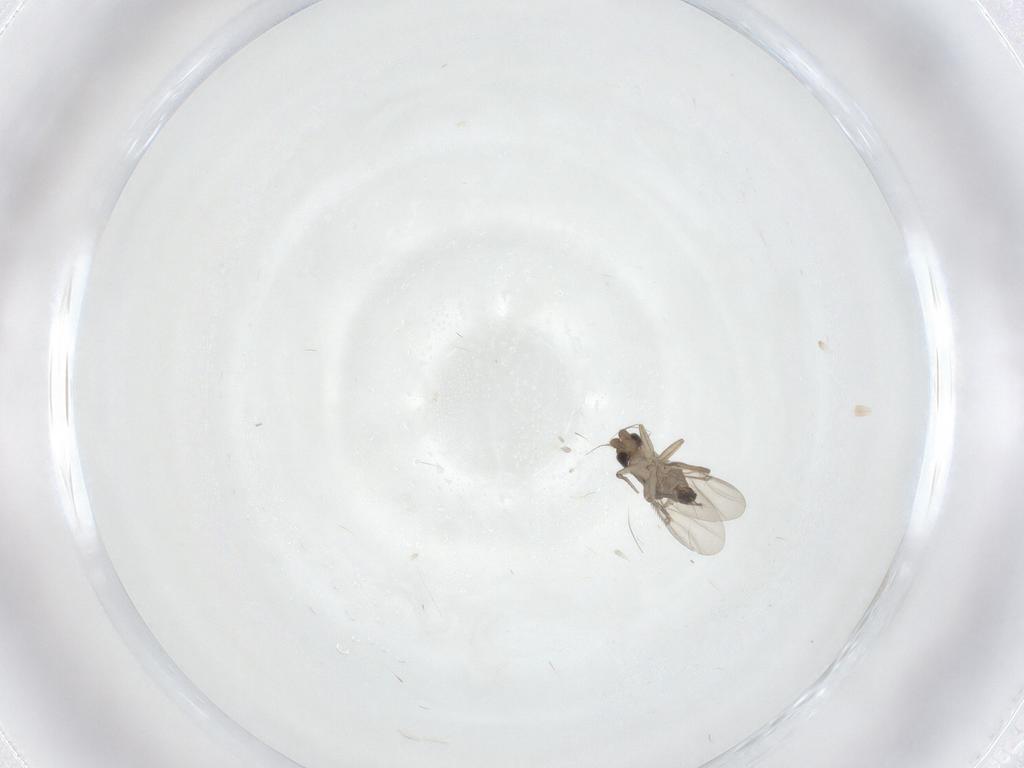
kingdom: Animalia
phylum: Arthropoda
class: Insecta
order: Diptera
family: Phoridae
